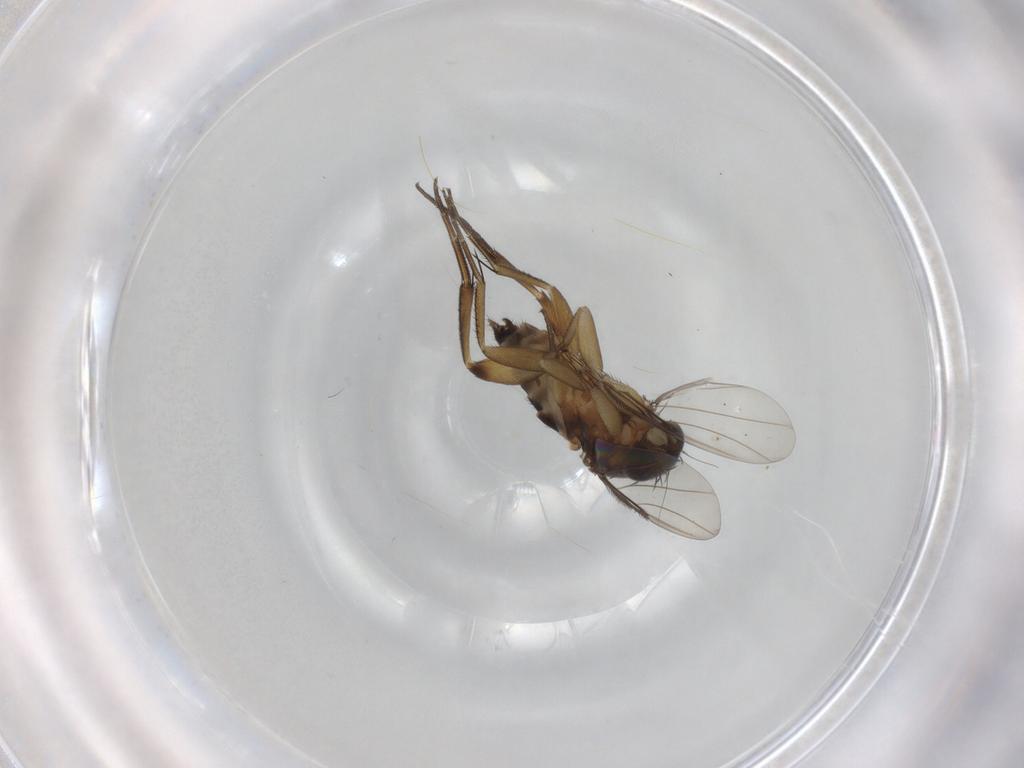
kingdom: Animalia
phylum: Arthropoda
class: Insecta
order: Diptera
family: Phoridae
